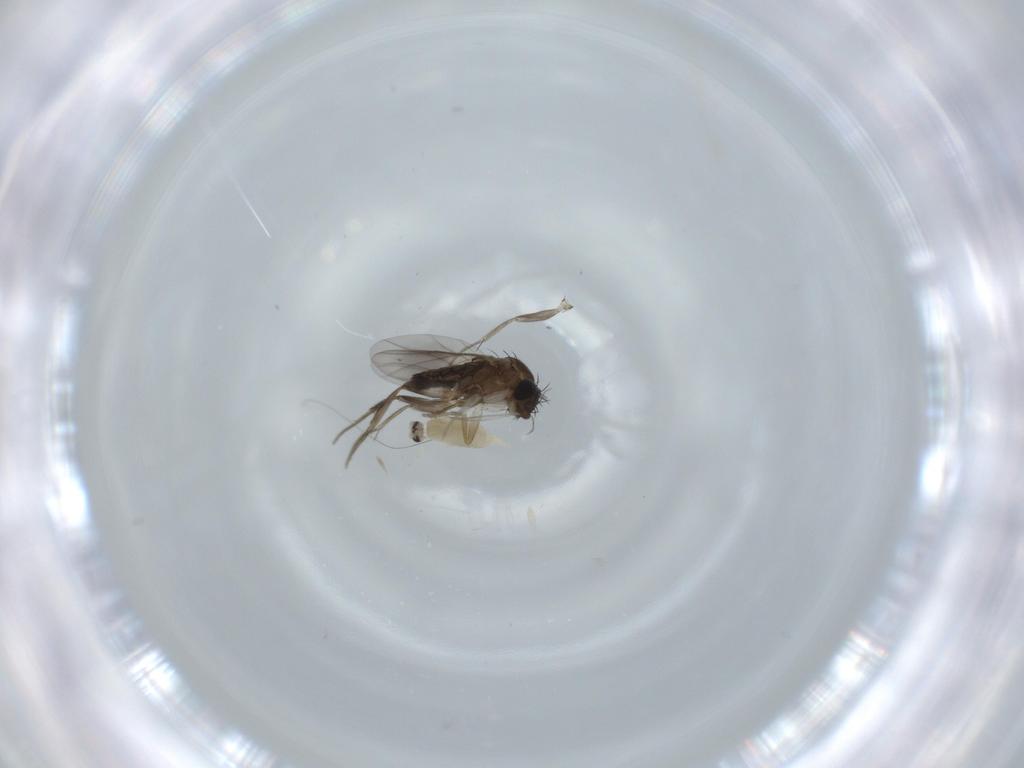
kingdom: Animalia
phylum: Arthropoda
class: Insecta
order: Diptera
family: Phoridae
